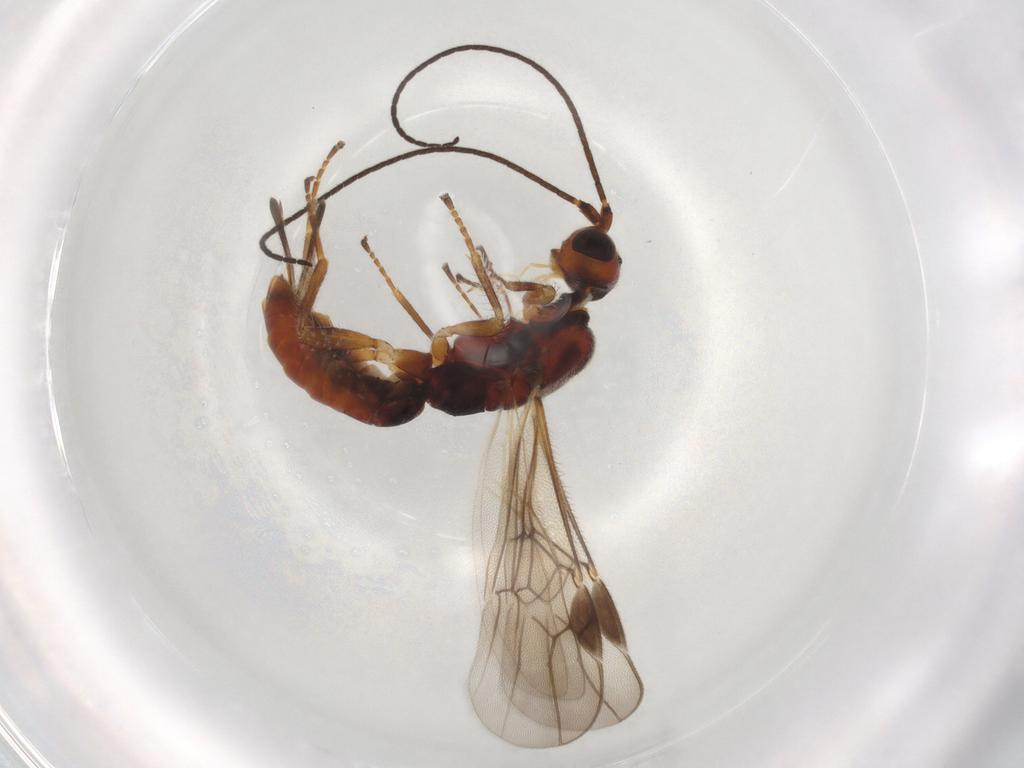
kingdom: Animalia
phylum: Arthropoda
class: Insecta
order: Hymenoptera
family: Braconidae
